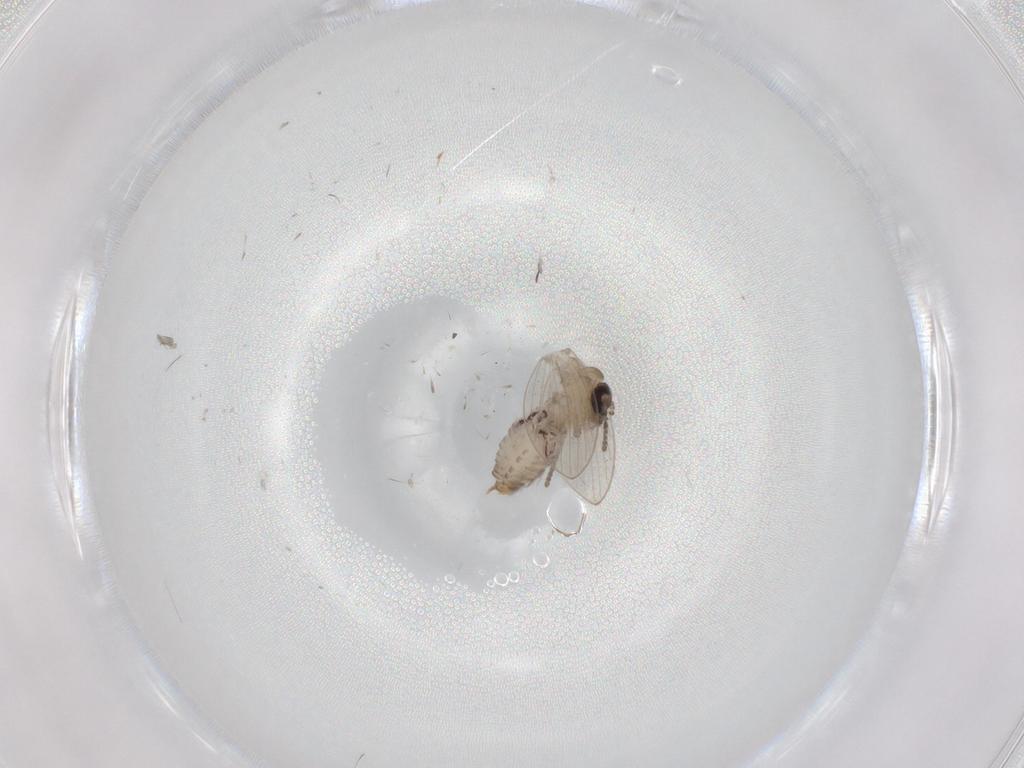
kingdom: Animalia
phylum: Arthropoda
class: Insecta
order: Diptera
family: Psychodidae
